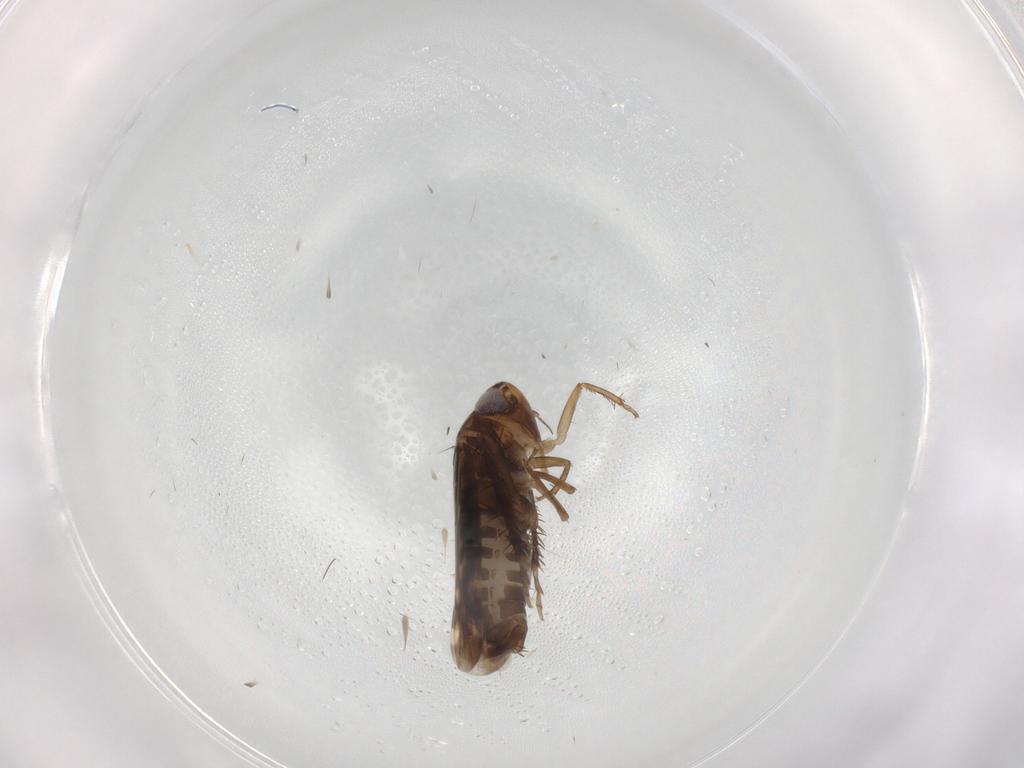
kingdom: Animalia
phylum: Arthropoda
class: Insecta
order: Hemiptera
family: Cicadellidae
